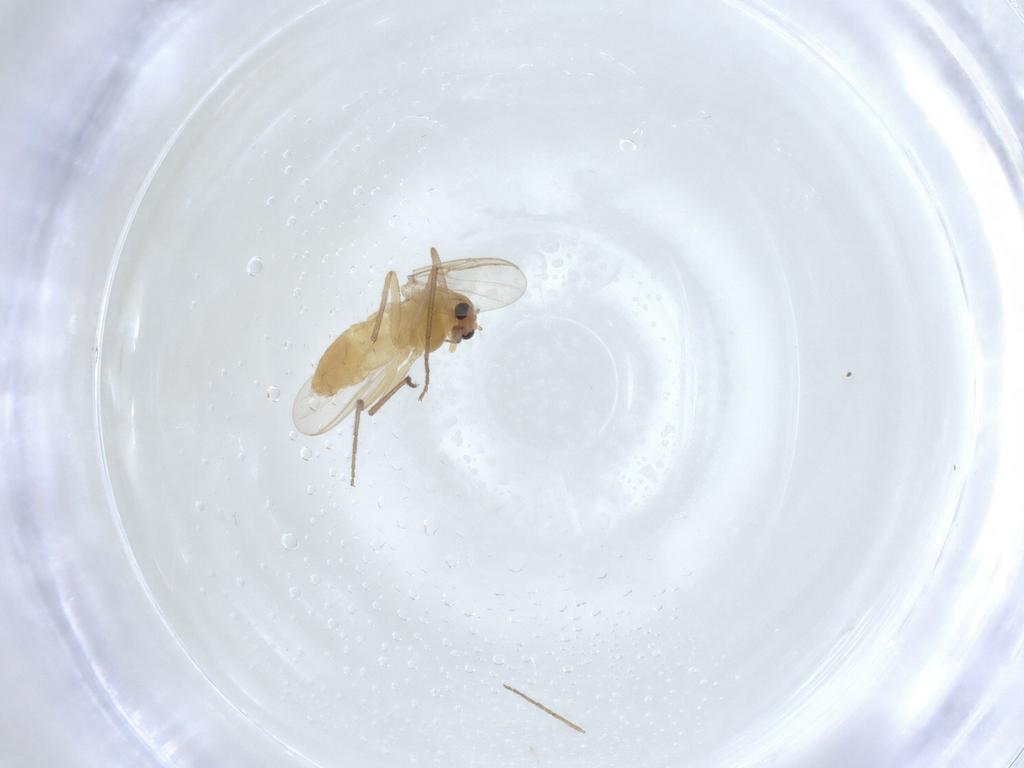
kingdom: Animalia
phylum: Arthropoda
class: Insecta
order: Diptera
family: Chironomidae
